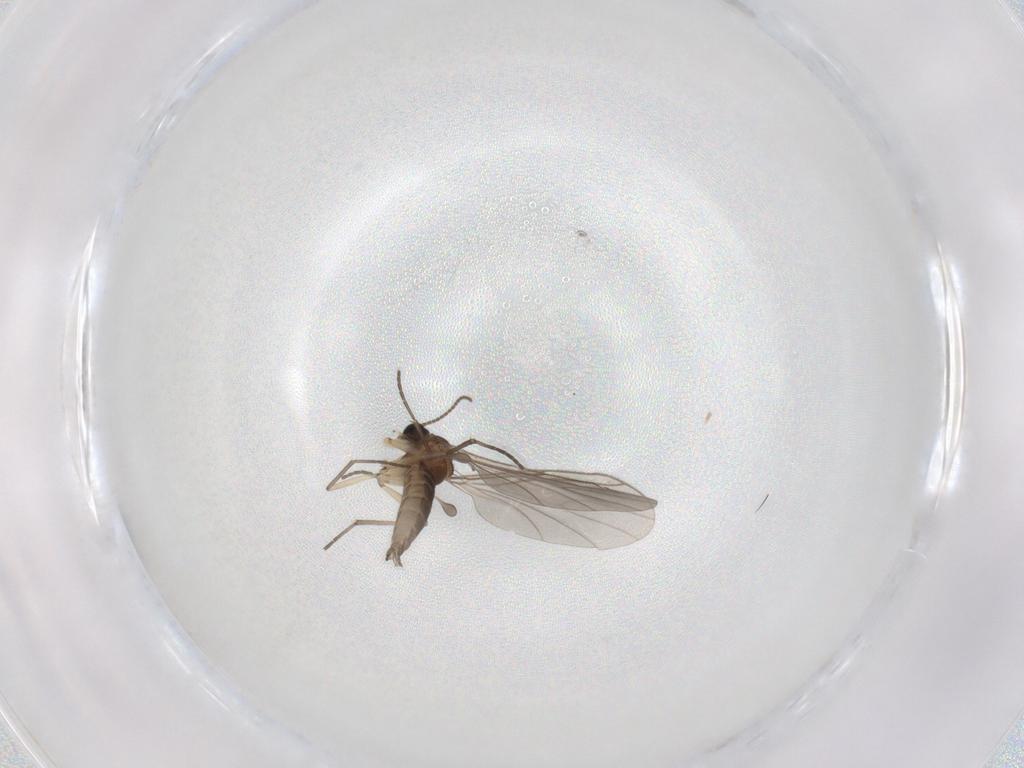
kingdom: Animalia
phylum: Arthropoda
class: Insecta
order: Diptera
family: Sciaridae
